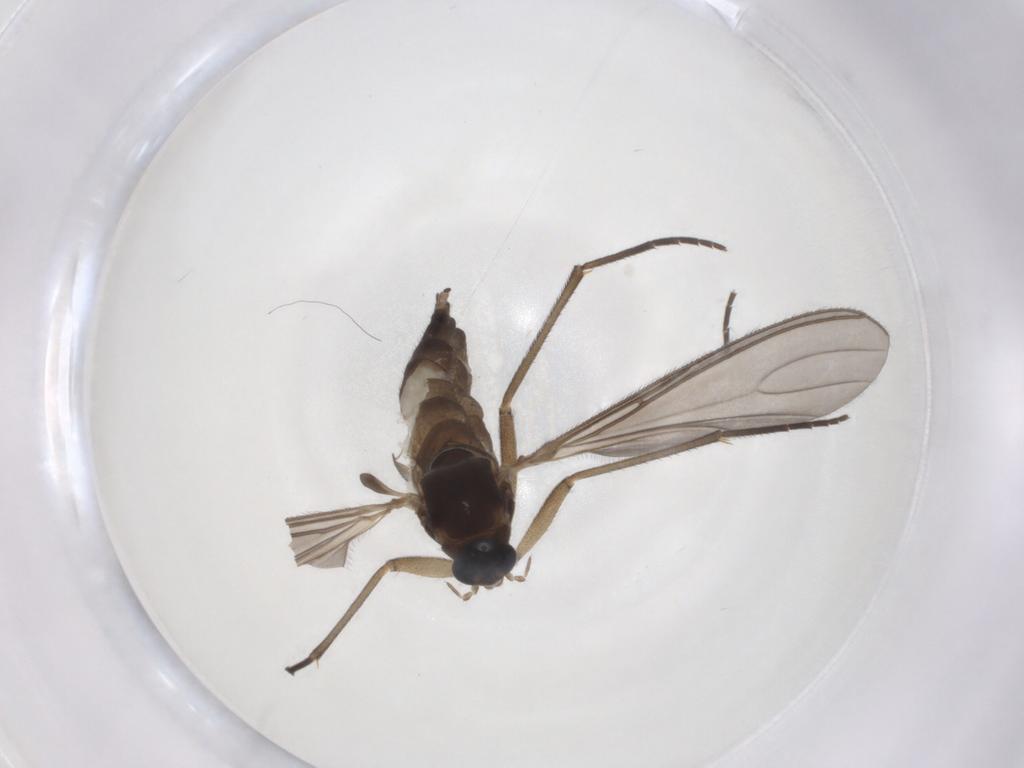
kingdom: Animalia
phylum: Arthropoda
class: Insecta
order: Diptera
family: Sciaridae
